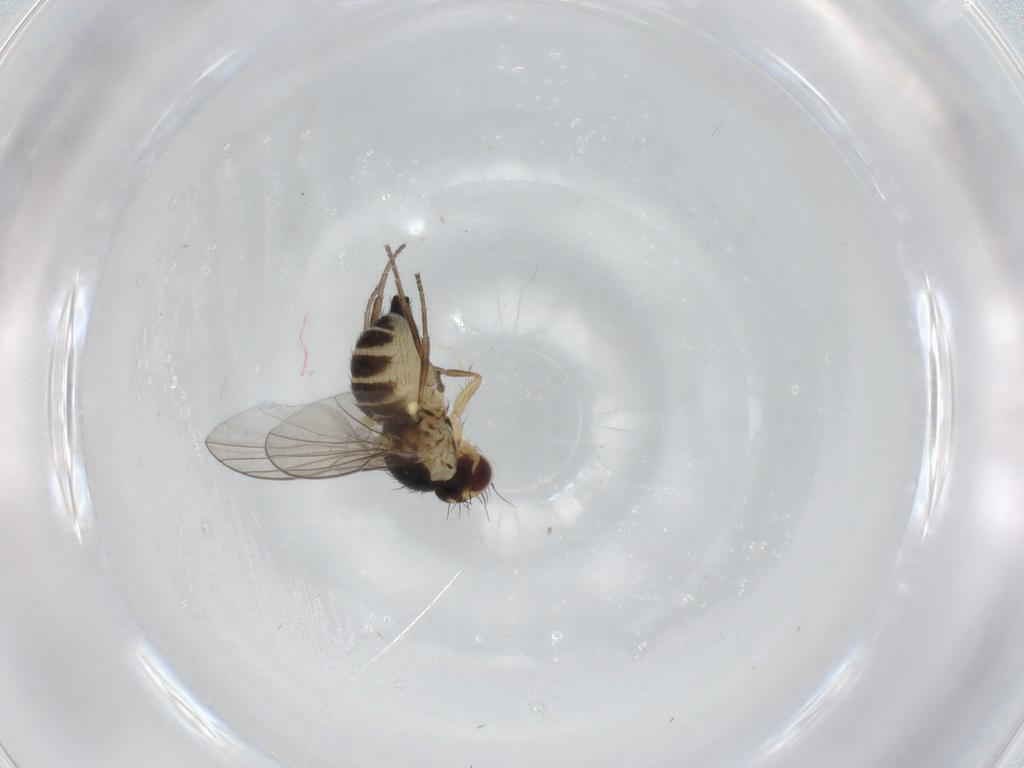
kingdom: Animalia
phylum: Arthropoda
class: Insecta
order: Diptera
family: Agromyzidae
